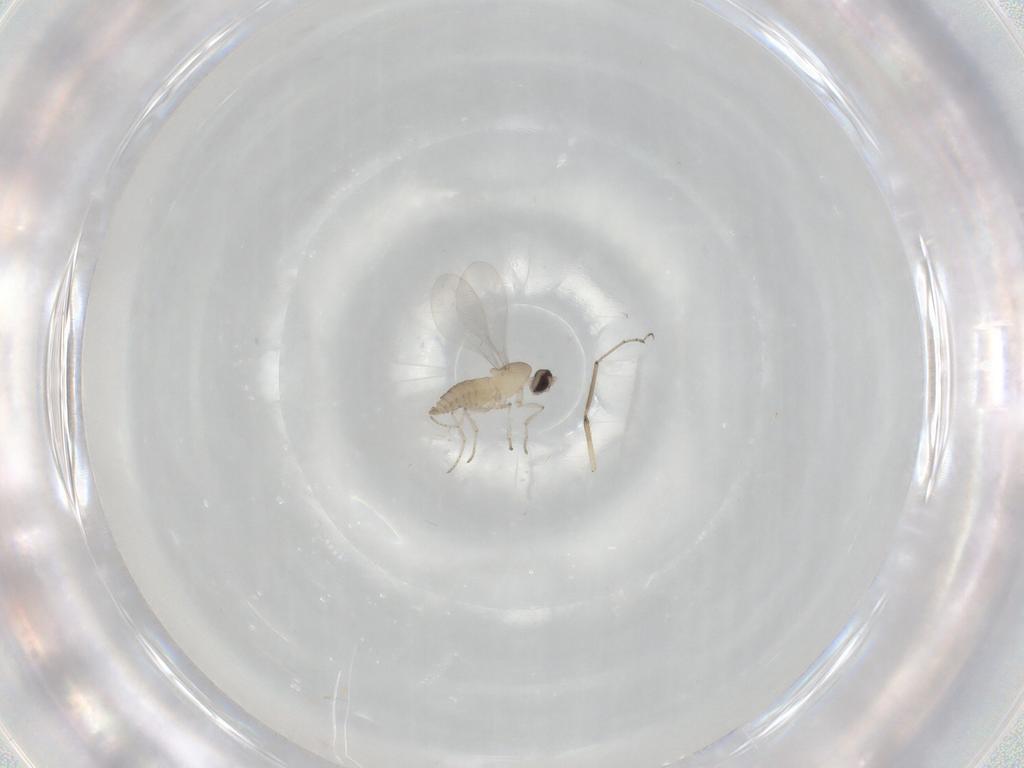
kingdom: Animalia
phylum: Arthropoda
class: Insecta
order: Diptera
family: Cecidomyiidae
